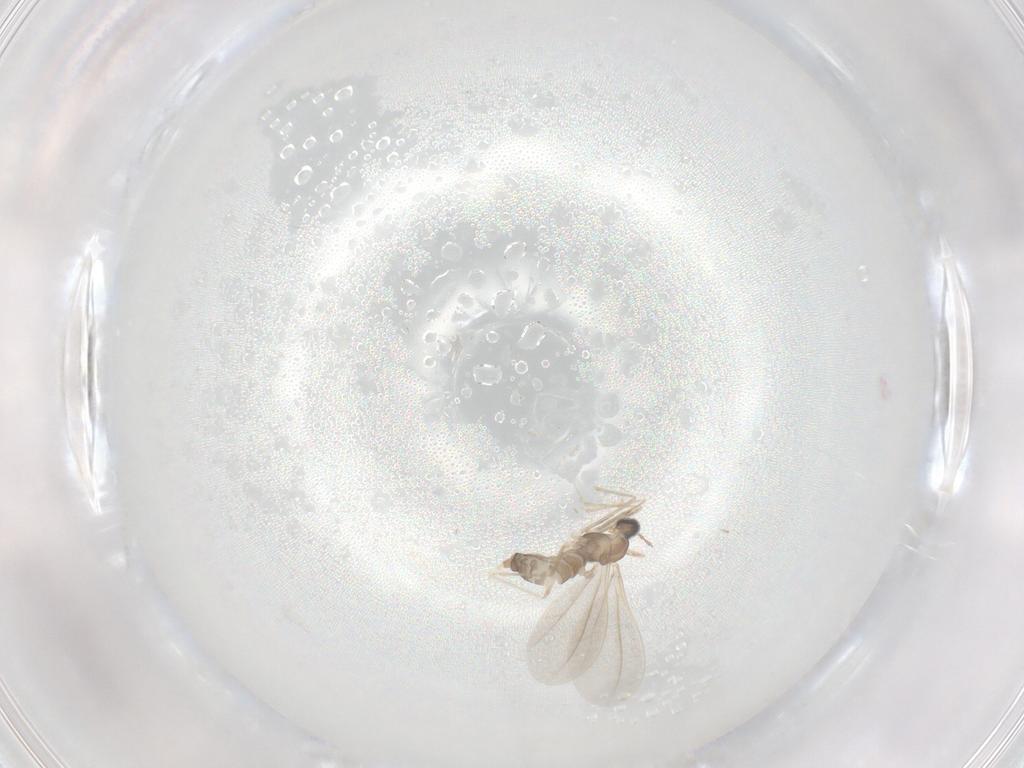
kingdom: Animalia
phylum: Arthropoda
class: Insecta
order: Diptera
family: Cecidomyiidae
